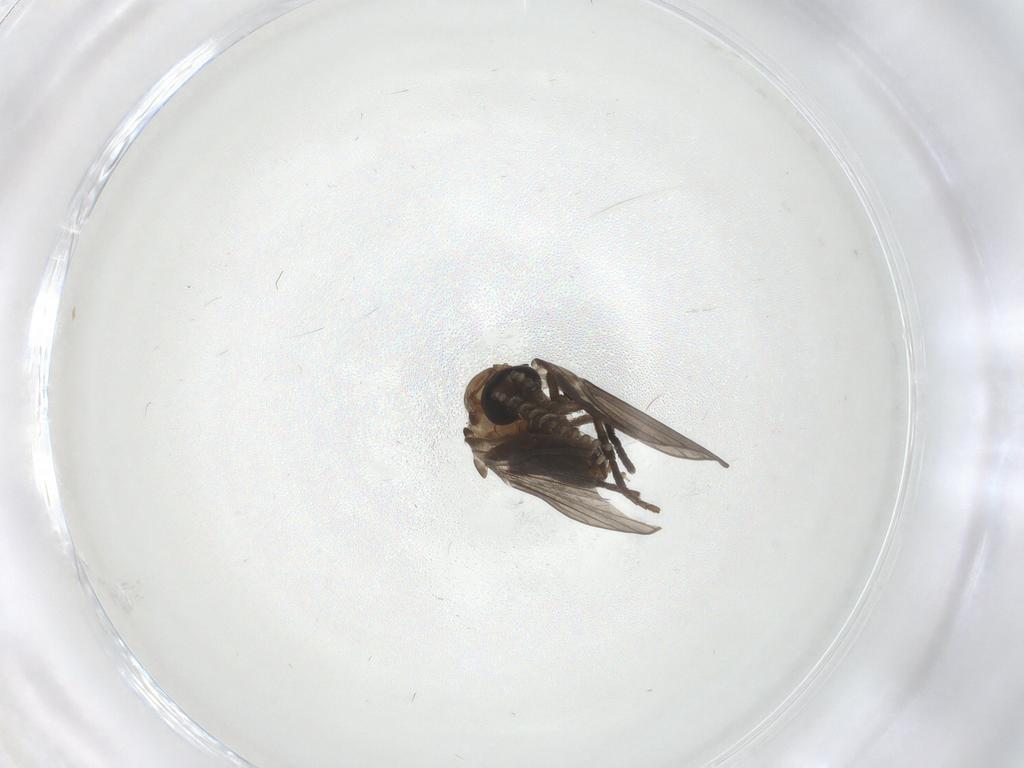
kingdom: Animalia
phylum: Arthropoda
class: Insecta
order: Diptera
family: Psychodidae
